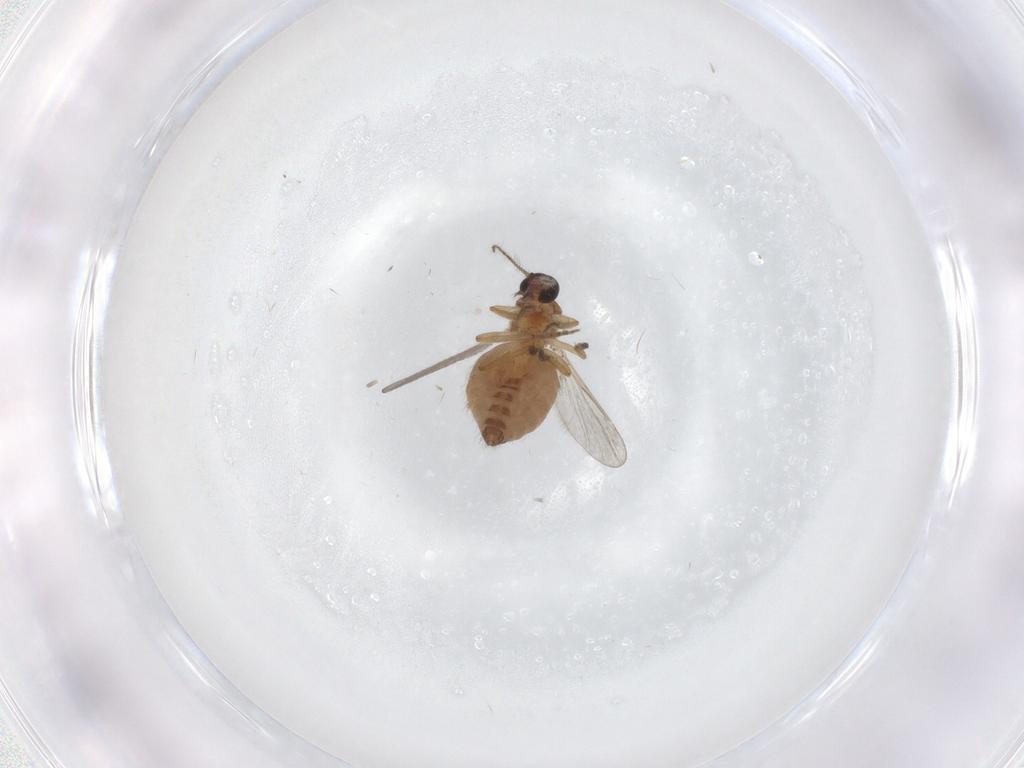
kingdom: Animalia
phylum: Arthropoda
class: Insecta
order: Diptera
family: Ceratopogonidae
